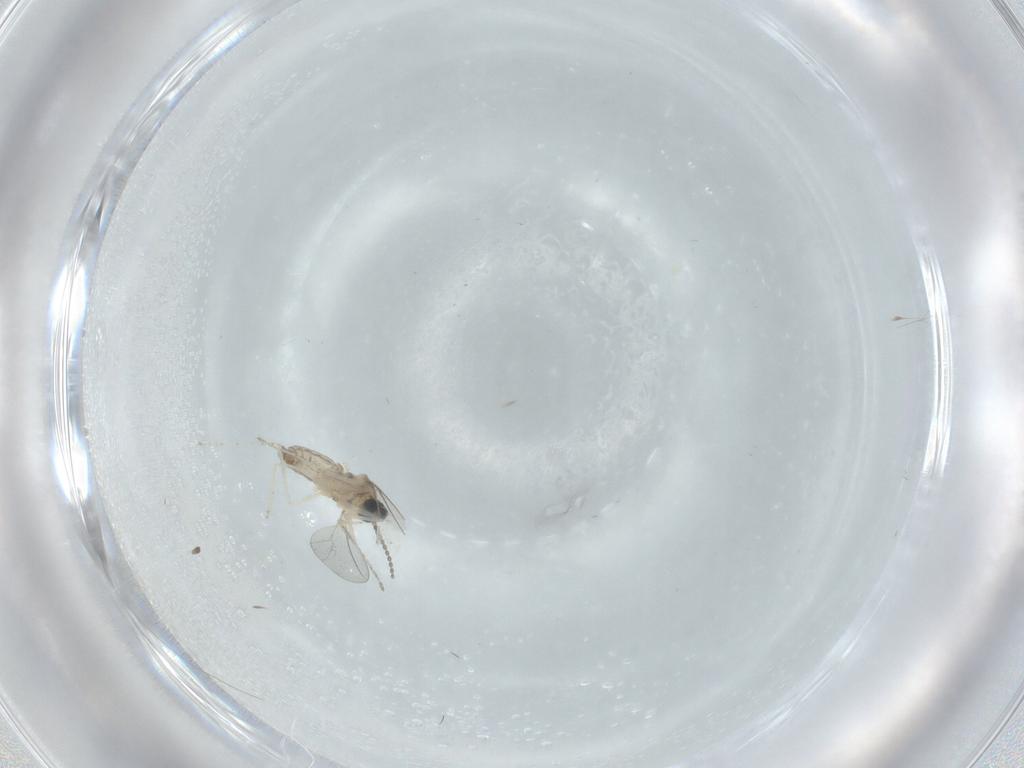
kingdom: Animalia
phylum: Arthropoda
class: Insecta
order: Diptera
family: Cecidomyiidae
